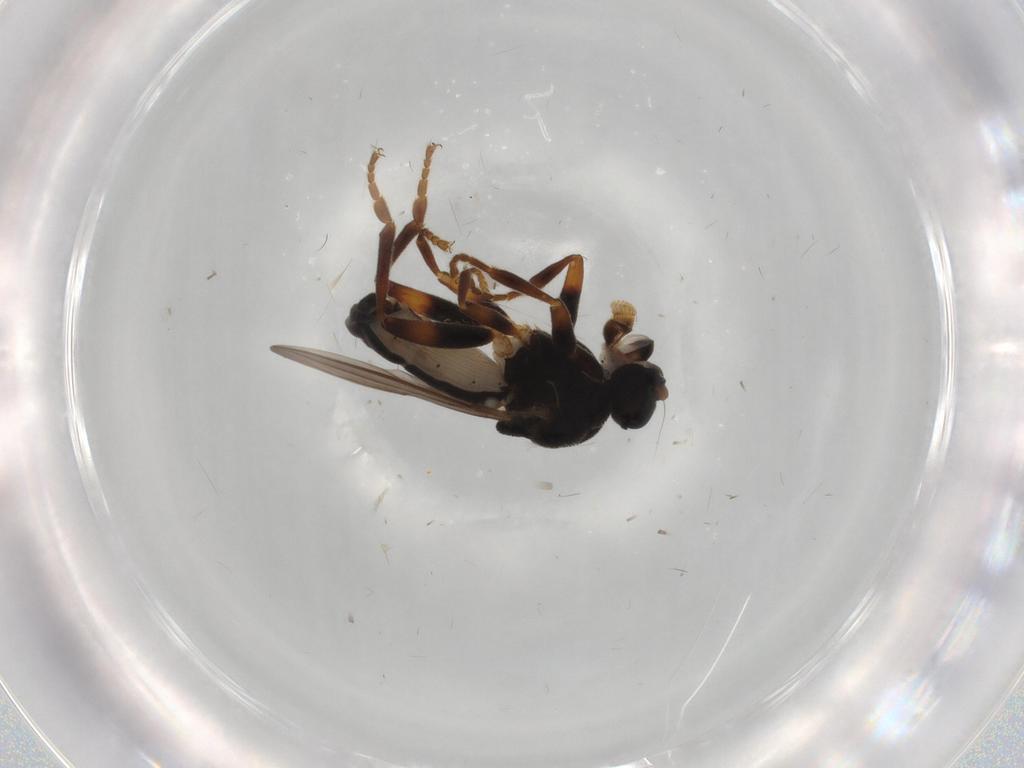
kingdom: Animalia
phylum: Arthropoda
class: Insecta
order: Diptera
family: Sphaeroceridae
